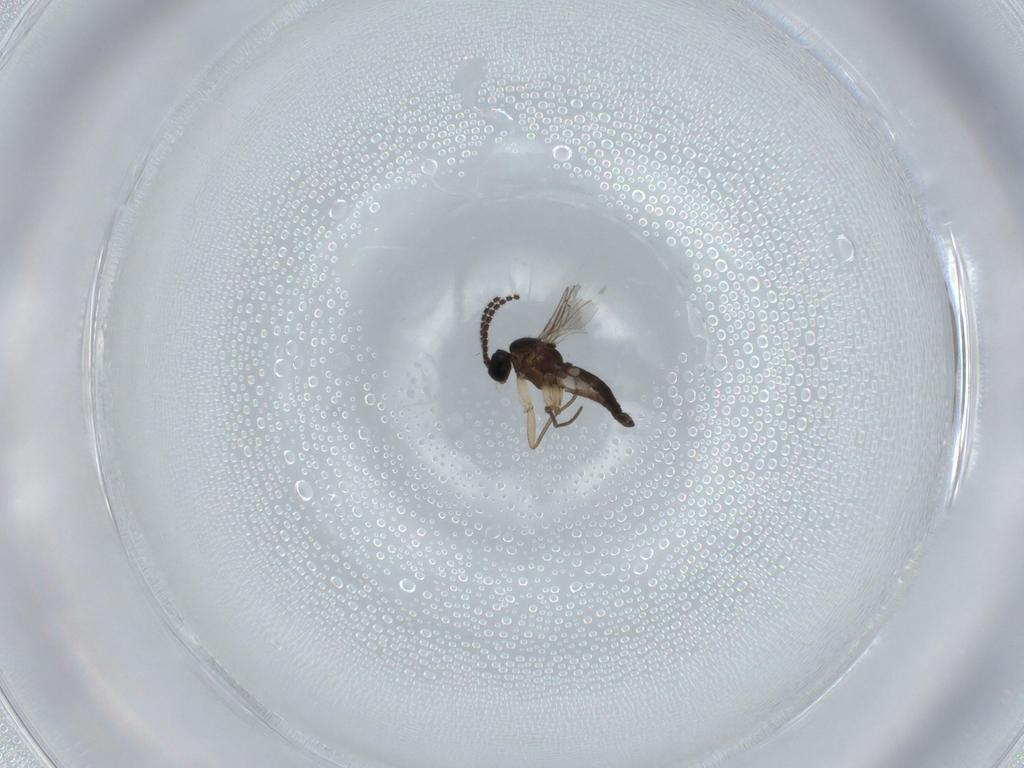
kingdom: Animalia
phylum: Arthropoda
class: Insecta
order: Diptera
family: Sciaridae
